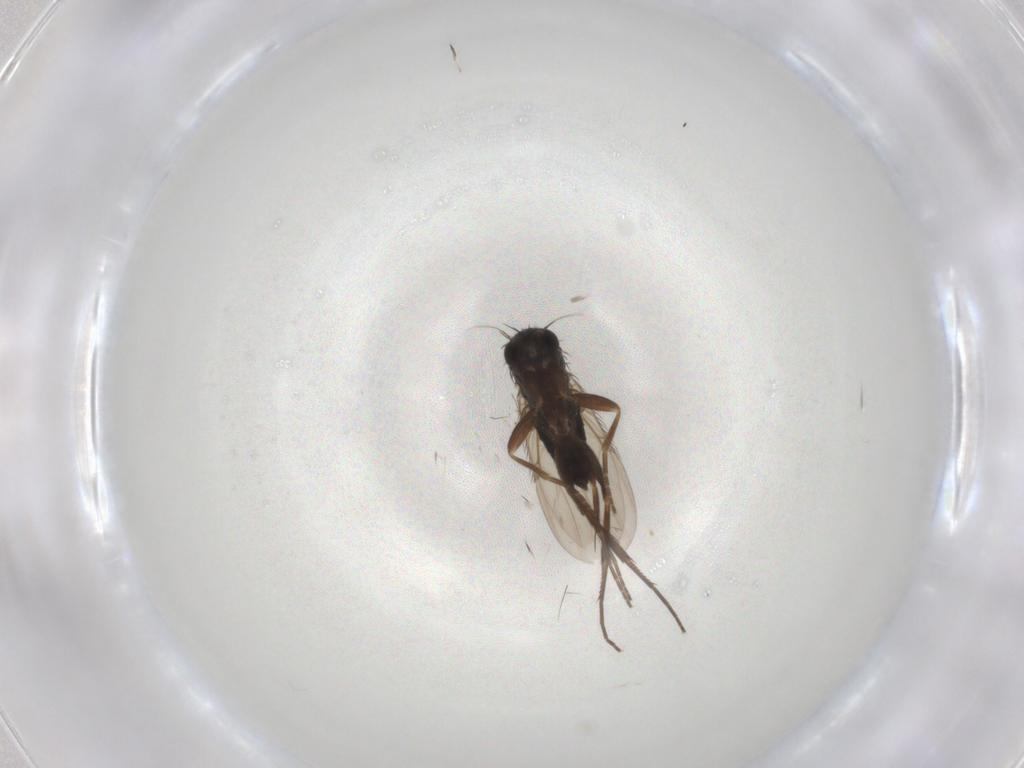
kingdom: Animalia
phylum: Arthropoda
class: Insecta
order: Diptera
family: Phoridae
